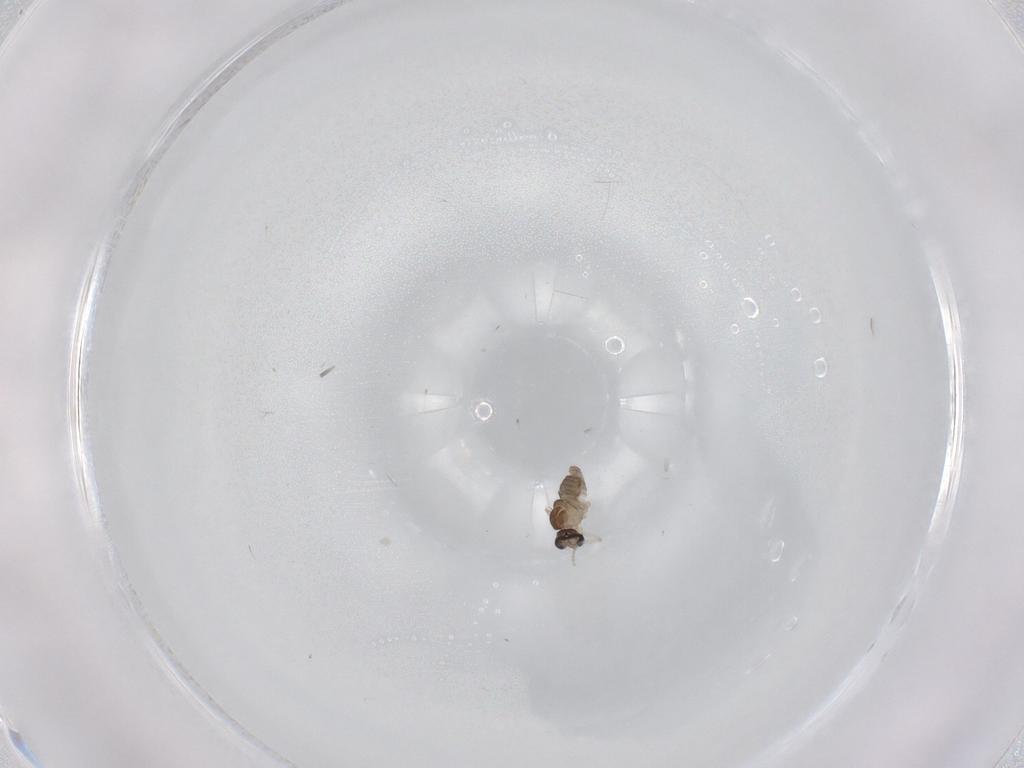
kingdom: Animalia
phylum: Arthropoda
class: Insecta
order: Diptera
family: Cecidomyiidae
